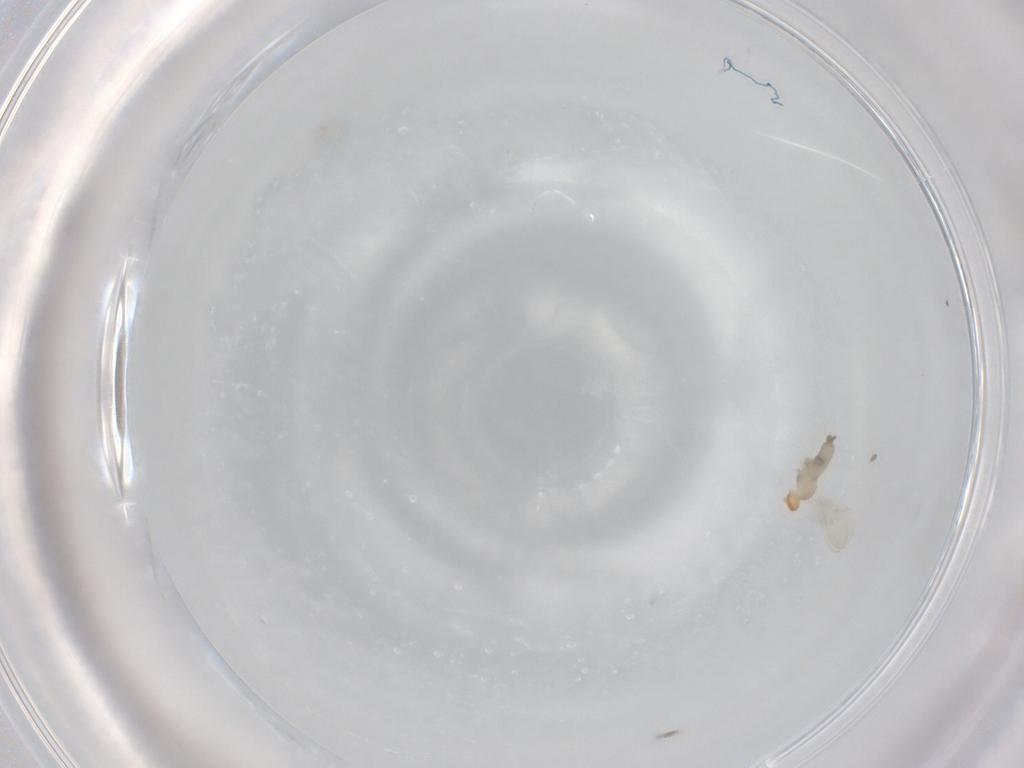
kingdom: Animalia
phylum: Arthropoda
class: Insecta
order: Diptera
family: Cecidomyiidae
